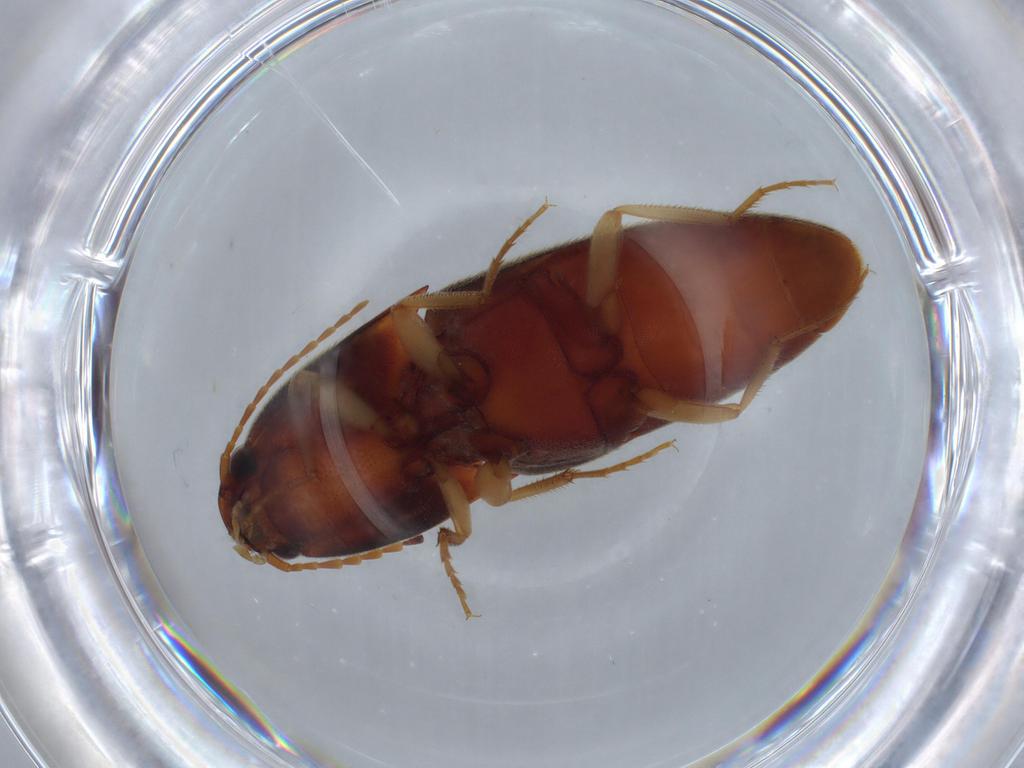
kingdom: Animalia
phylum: Arthropoda
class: Insecta
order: Coleoptera
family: Elateridae
